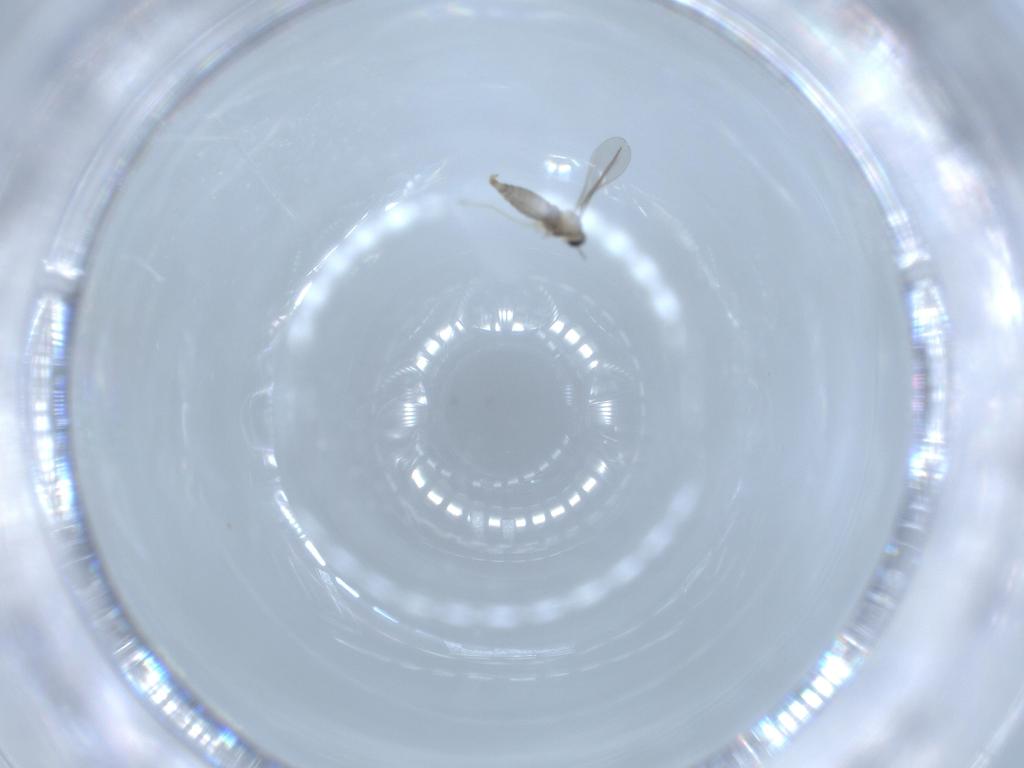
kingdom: Animalia
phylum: Arthropoda
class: Insecta
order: Diptera
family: Cecidomyiidae
